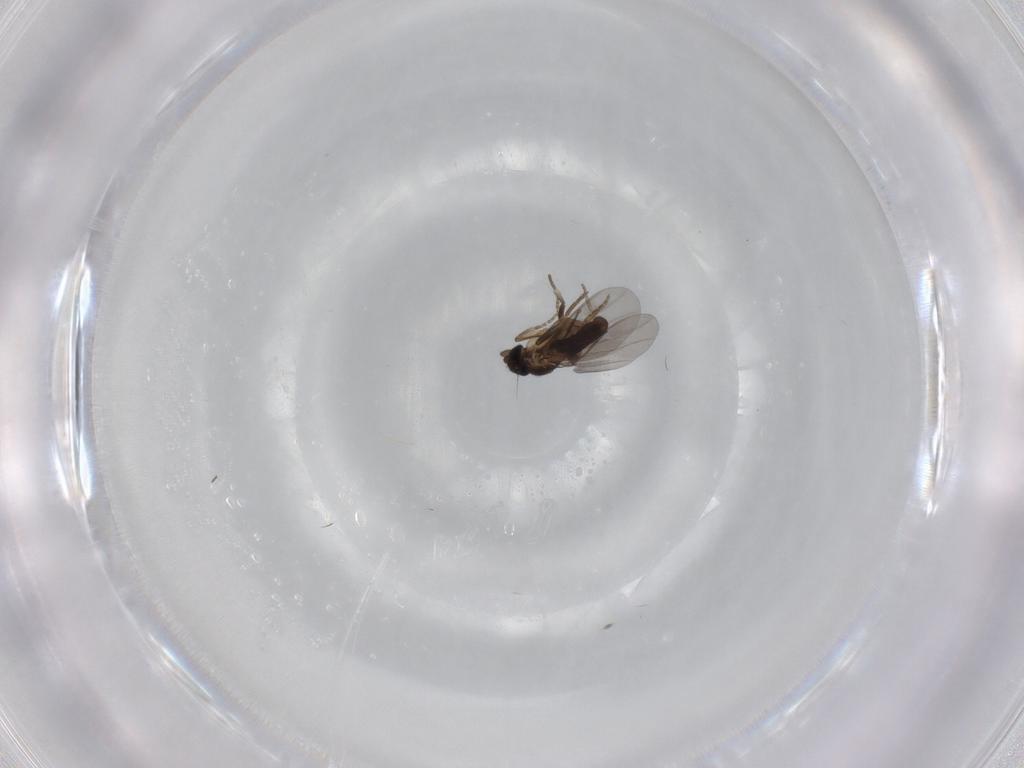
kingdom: Animalia
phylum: Arthropoda
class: Insecta
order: Diptera
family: Chironomidae
